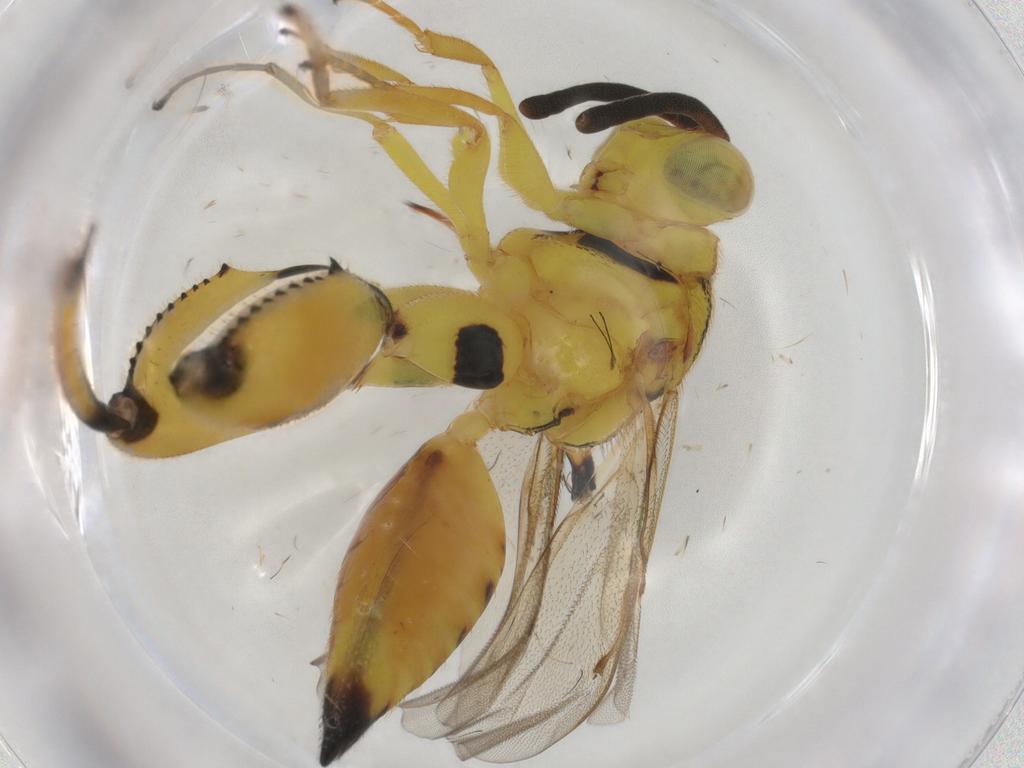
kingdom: Animalia
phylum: Arthropoda
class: Insecta
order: Hymenoptera
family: Chalcididae
